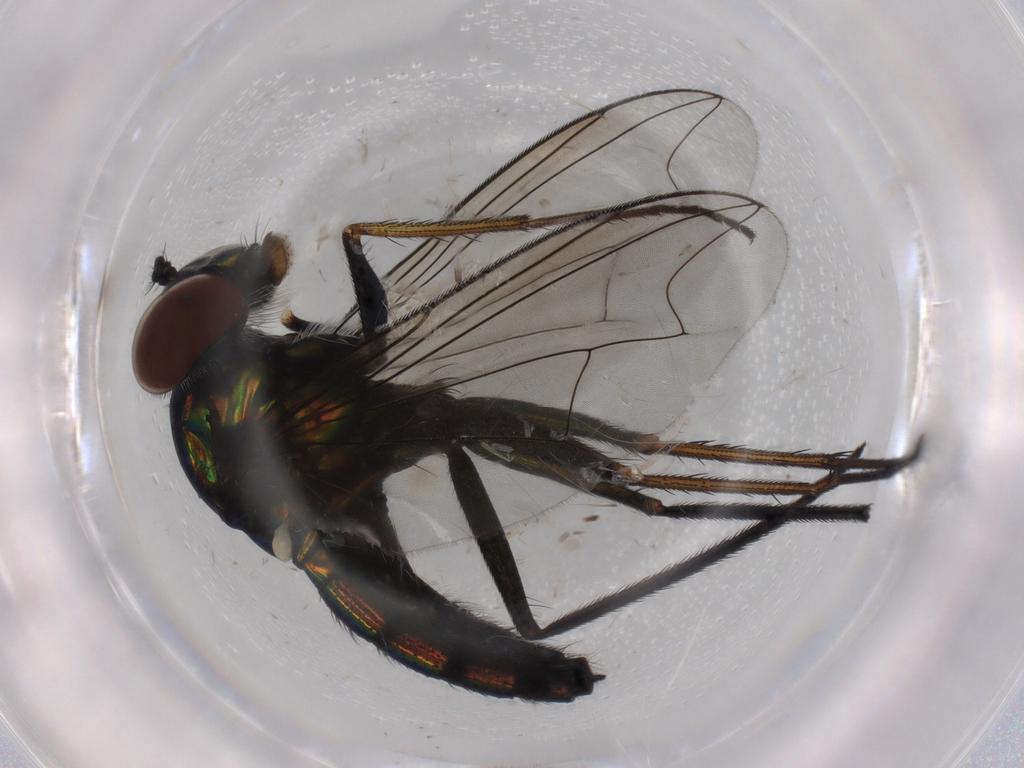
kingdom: Animalia
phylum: Arthropoda
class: Insecta
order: Diptera
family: Dolichopodidae
